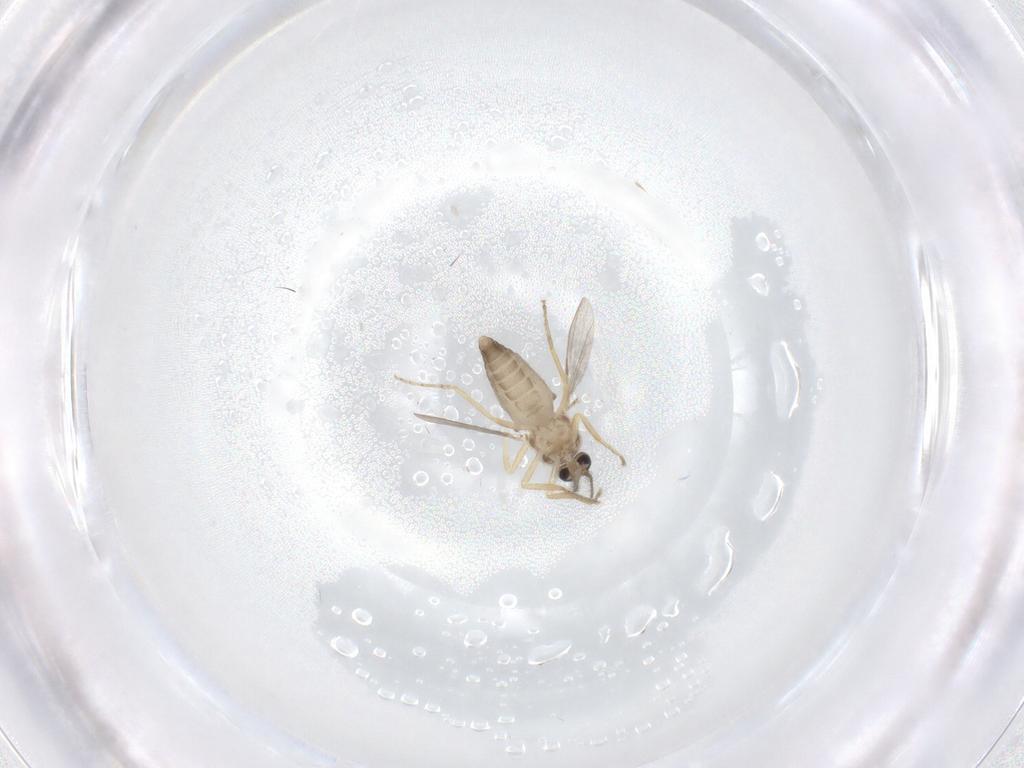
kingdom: Animalia
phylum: Arthropoda
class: Insecta
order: Diptera
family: Ceratopogonidae
